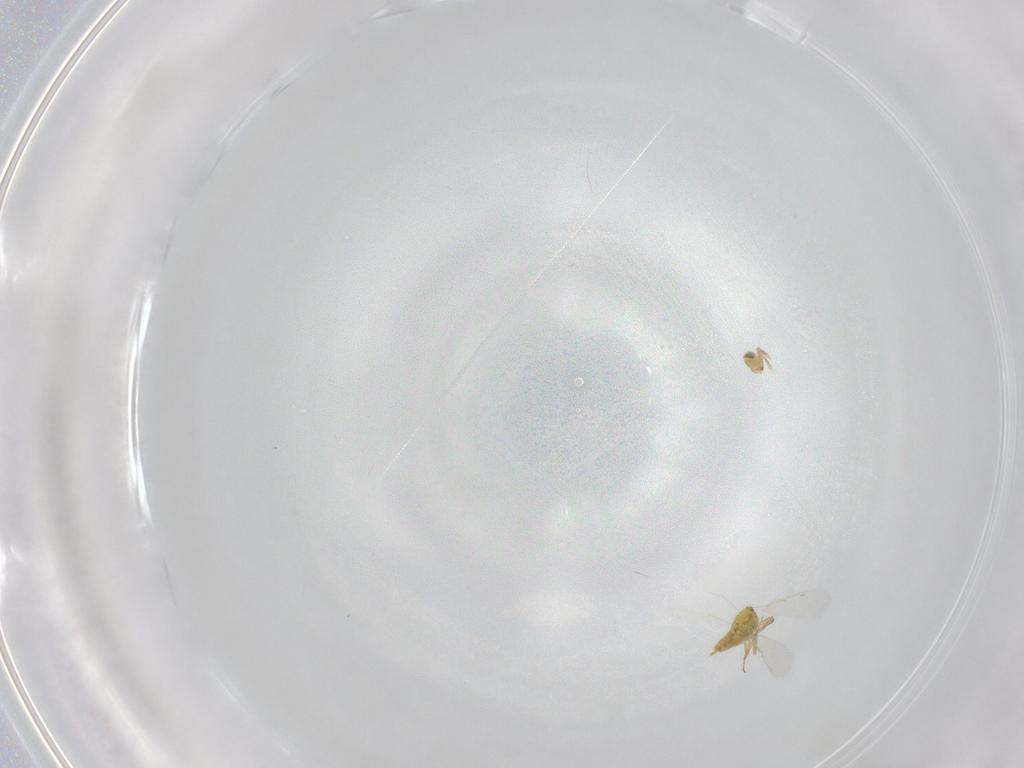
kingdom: Animalia
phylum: Arthropoda
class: Insecta
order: Hymenoptera
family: Aphelinidae
